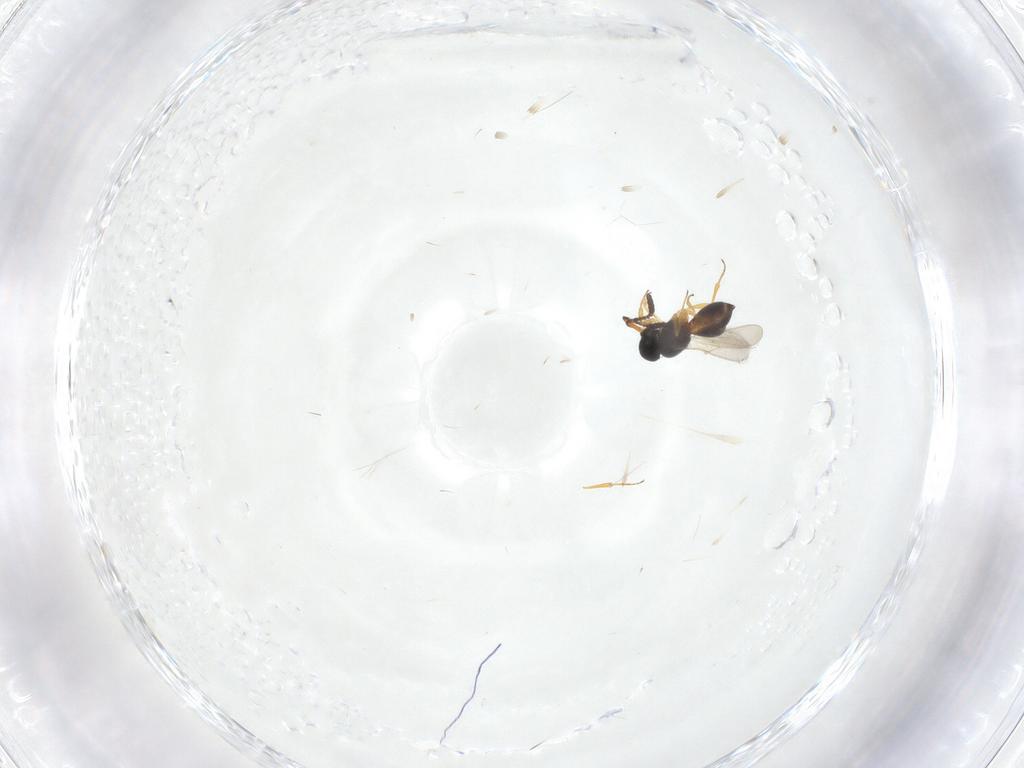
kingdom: Animalia
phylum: Arthropoda
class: Insecta
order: Hymenoptera
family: Scelionidae
